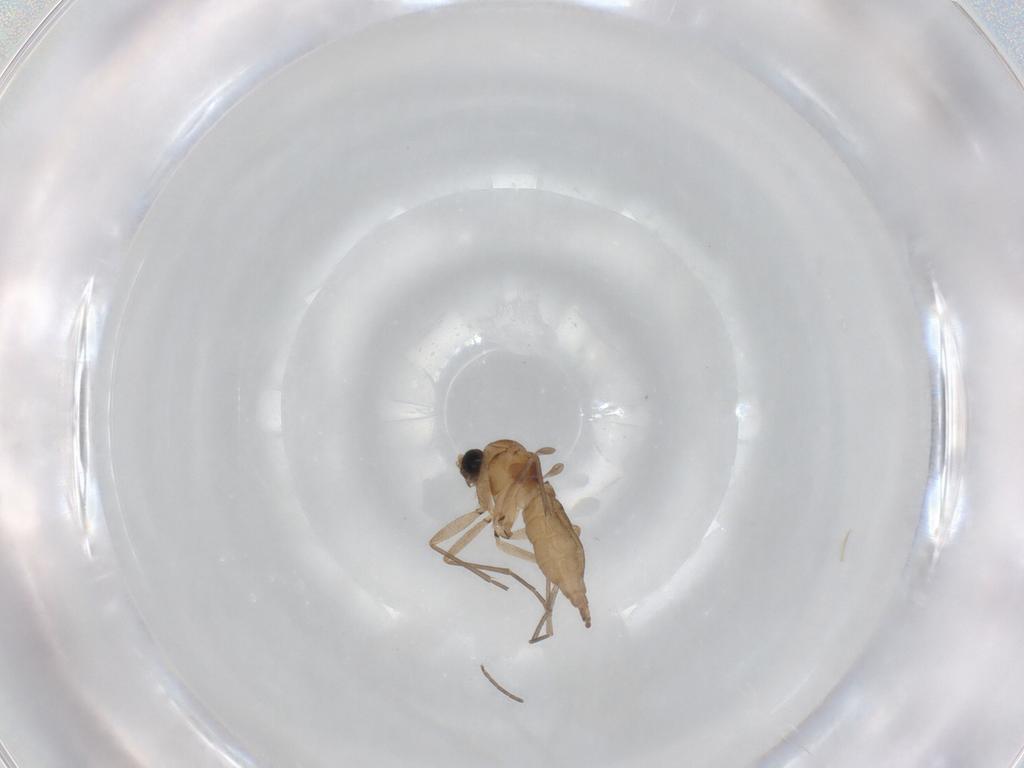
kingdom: Animalia
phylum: Arthropoda
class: Insecta
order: Diptera
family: Sciaridae
